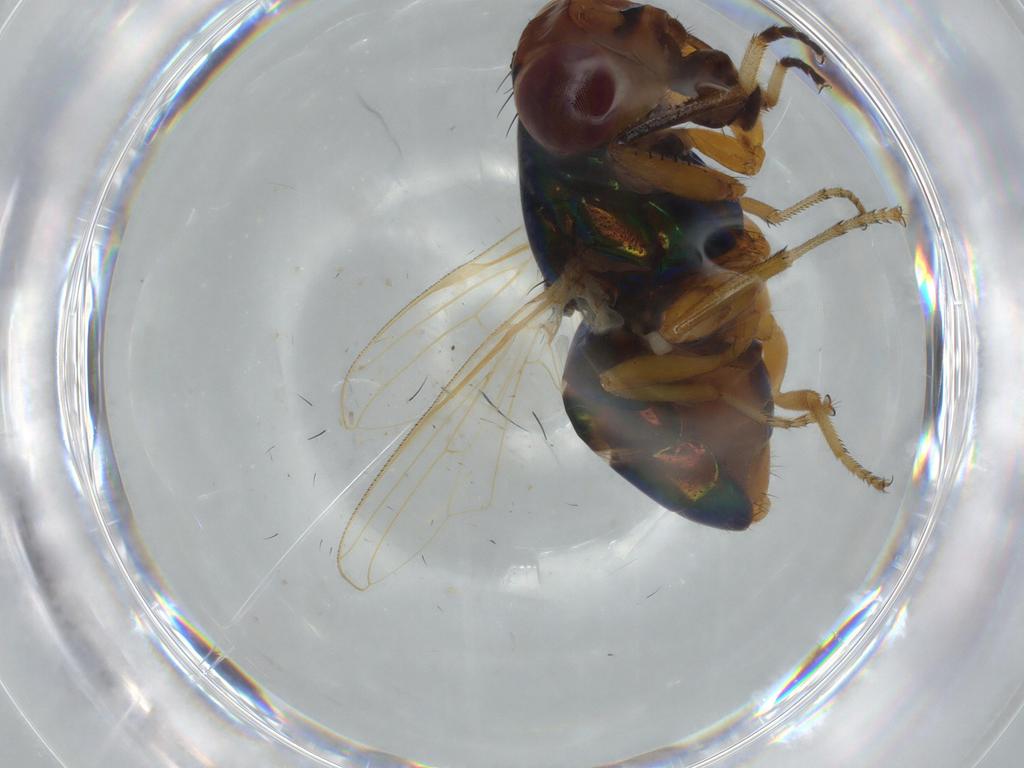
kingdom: Animalia
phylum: Arthropoda
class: Insecta
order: Diptera
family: Ulidiidae
